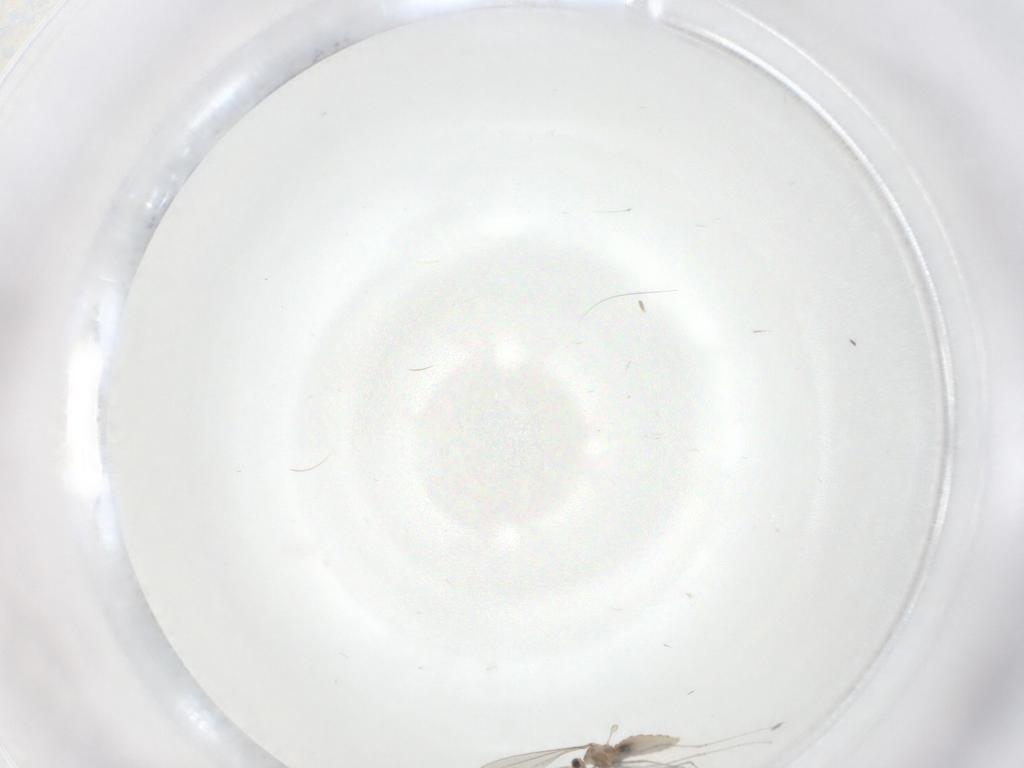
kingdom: Animalia
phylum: Arthropoda
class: Insecta
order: Diptera
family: Cecidomyiidae
